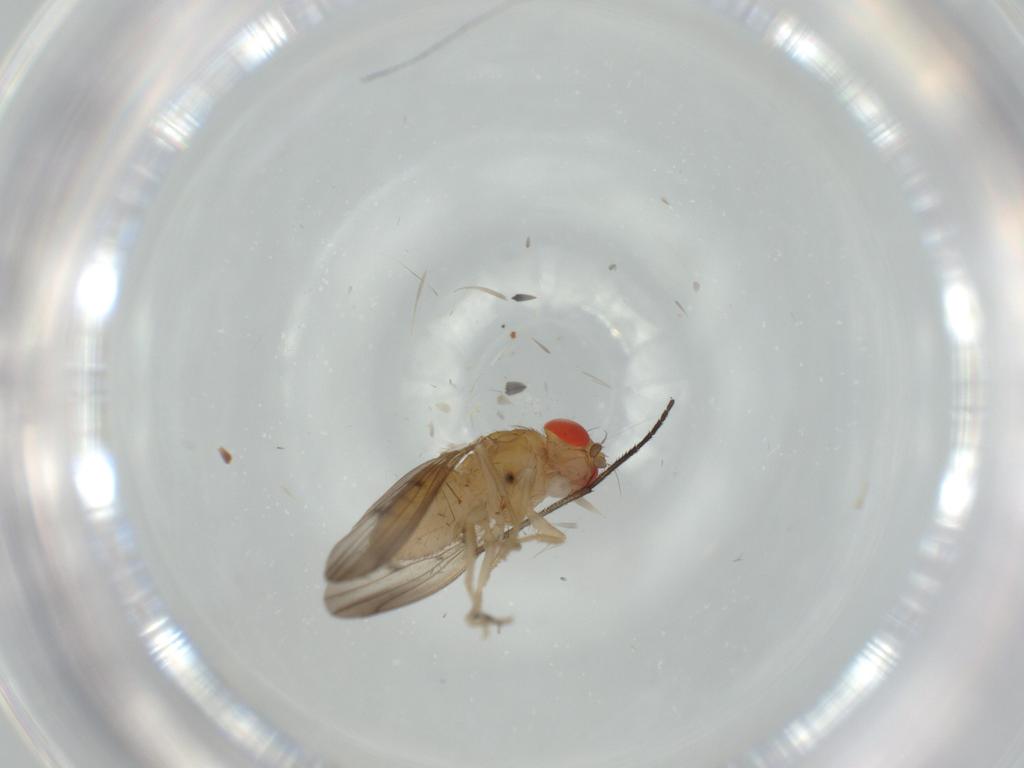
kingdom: Animalia
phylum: Arthropoda
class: Insecta
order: Diptera
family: Drosophilidae
